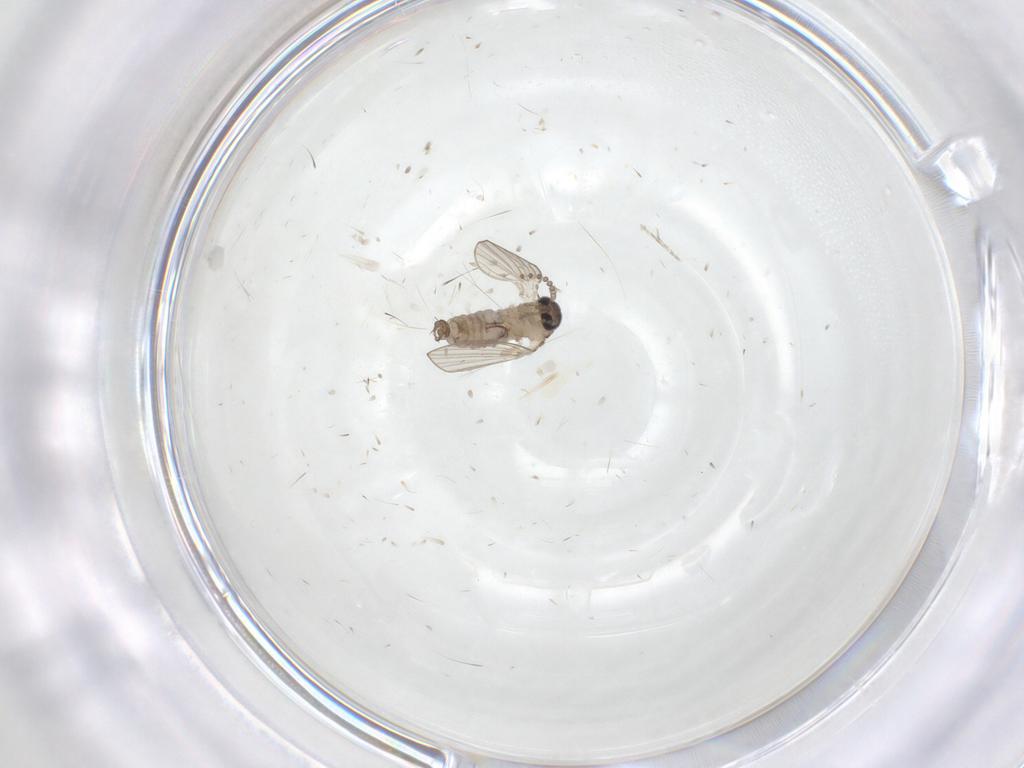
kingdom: Animalia
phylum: Arthropoda
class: Insecta
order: Diptera
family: Psychodidae
